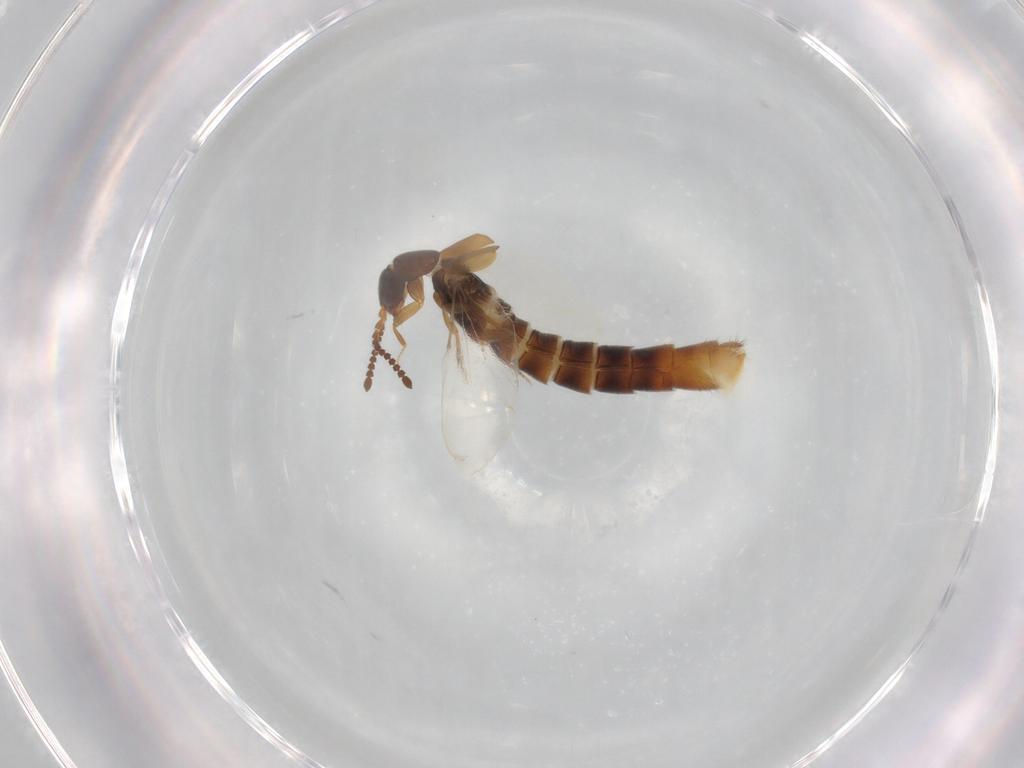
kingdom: Animalia
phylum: Arthropoda
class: Insecta
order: Coleoptera
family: Staphylinidae
